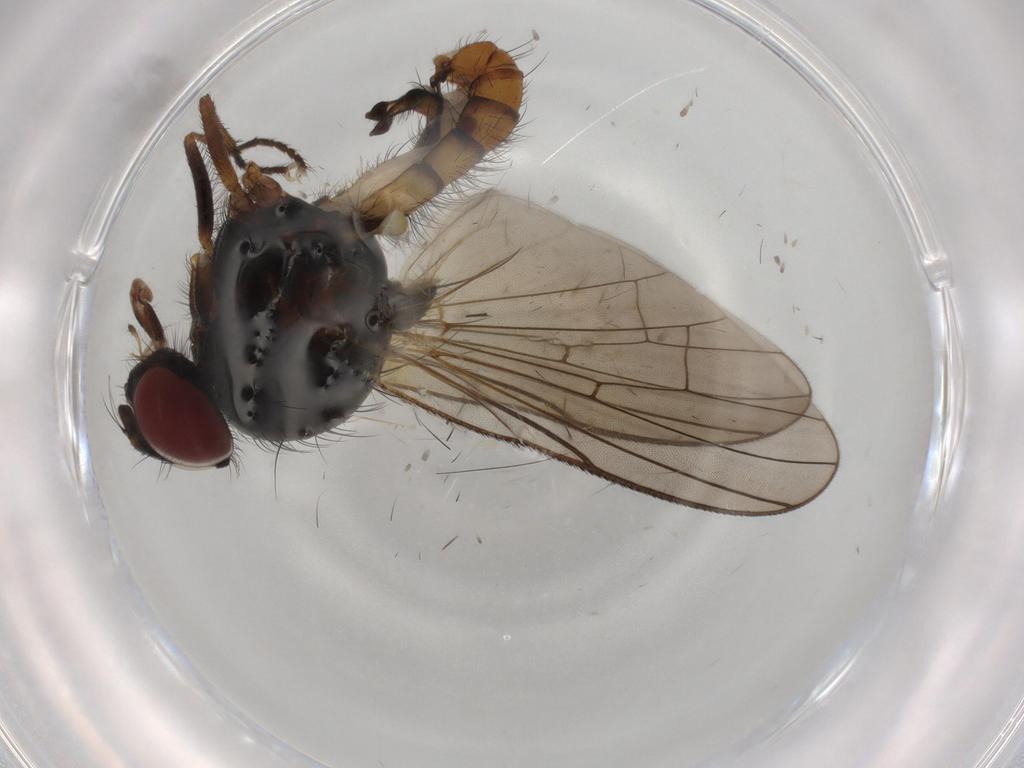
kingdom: Animalia
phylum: Arthropoda
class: Insecta
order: Diptera
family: Anthomyiidae
